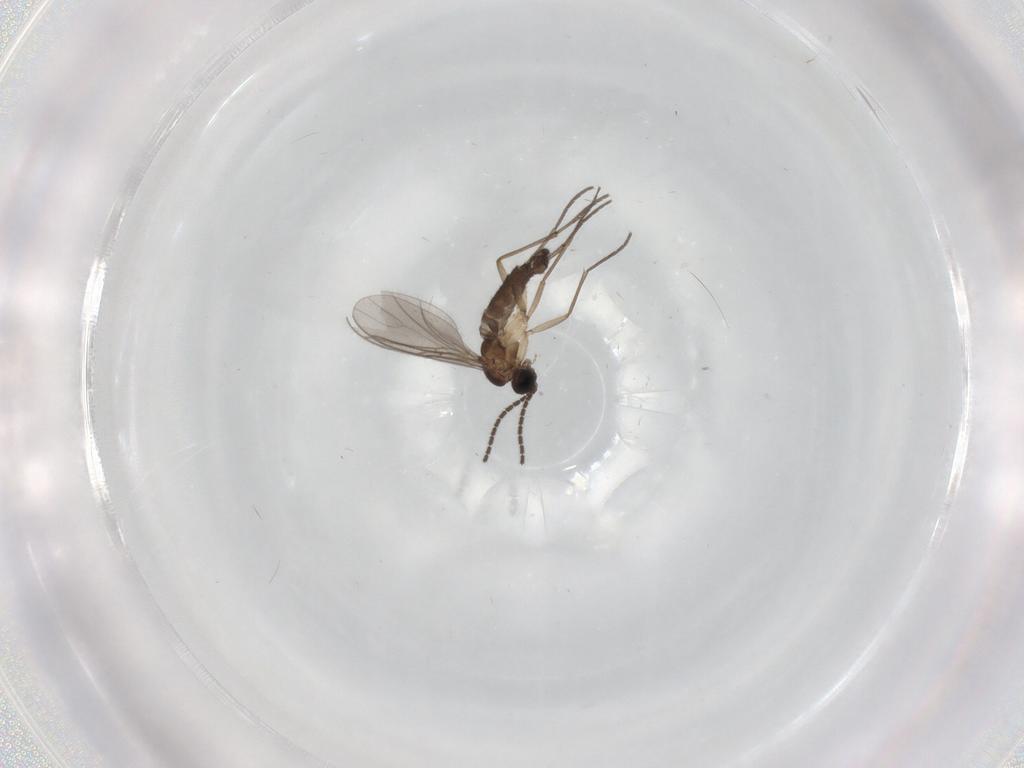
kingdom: Animalia
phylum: Arthropoda
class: Insecta
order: Diptera
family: Sciaridae
